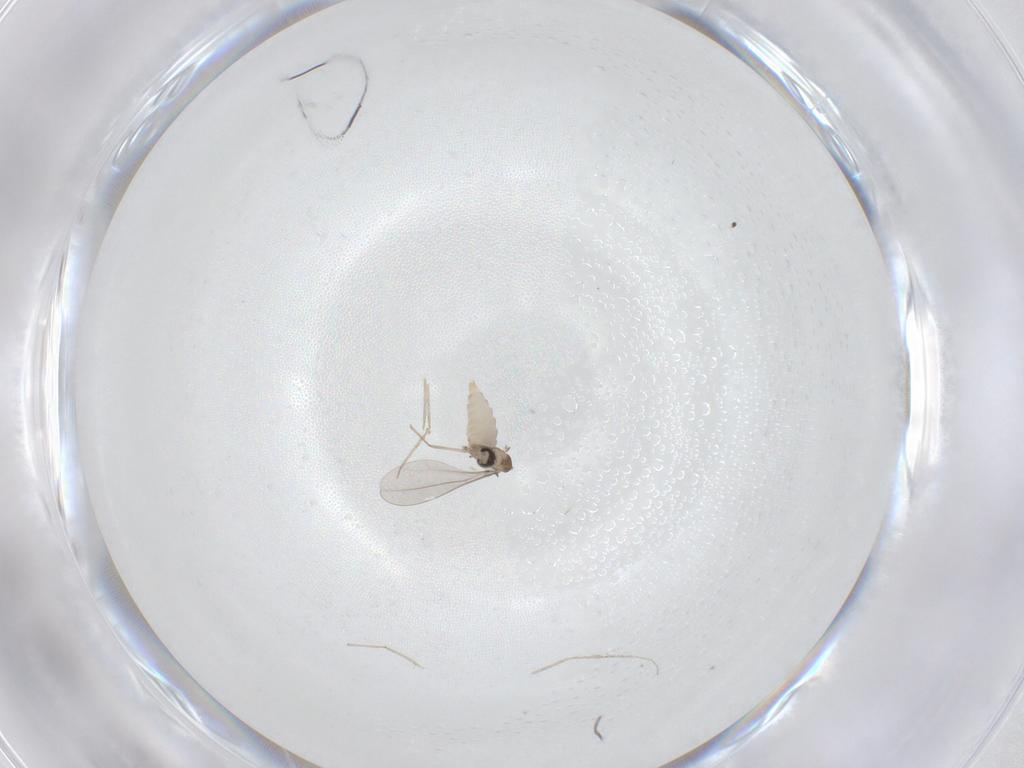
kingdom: Animalia
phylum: Arthropoda
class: Insecta
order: Diptera
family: Cecidomyiidae
